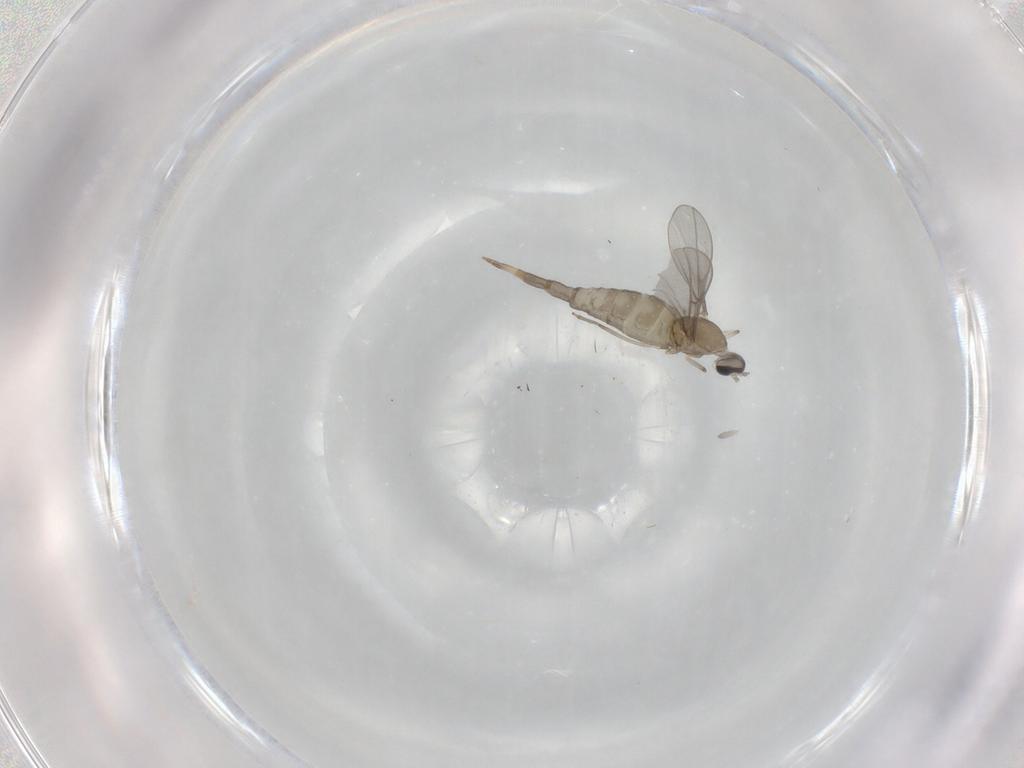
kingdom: Animalia
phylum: Arthropoda
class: Insecta
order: Diptera
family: Cecidomyiidae
